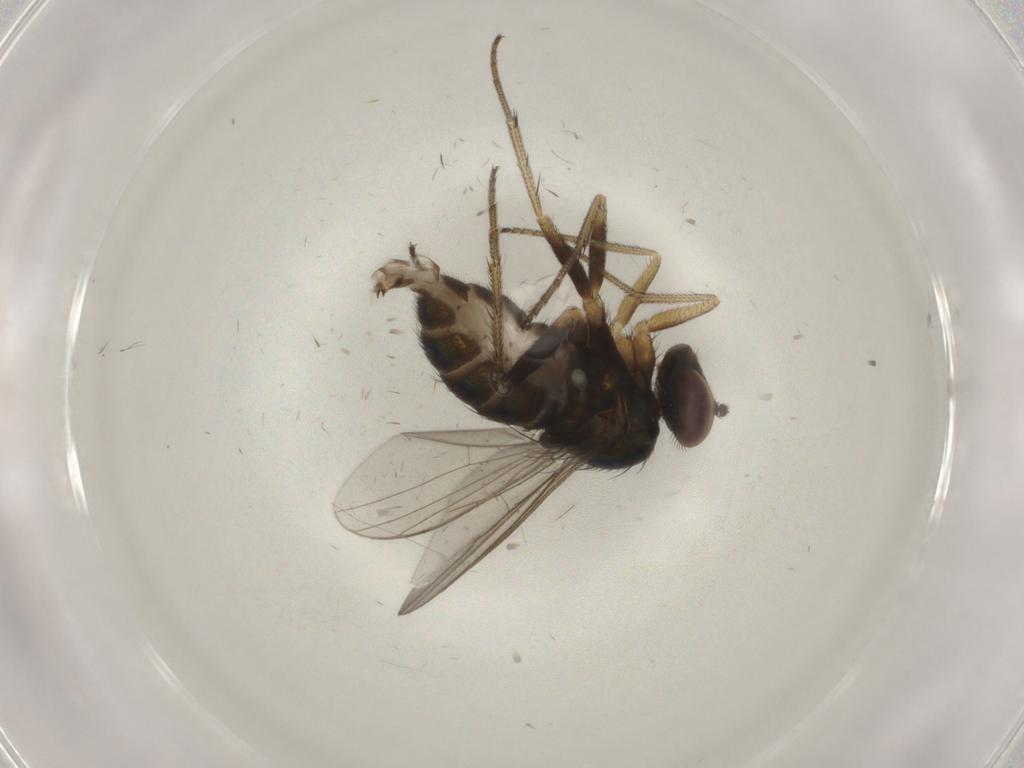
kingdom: Animalia
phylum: Arthropoda
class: Insecta
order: Diptera
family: Dolichopodidae
